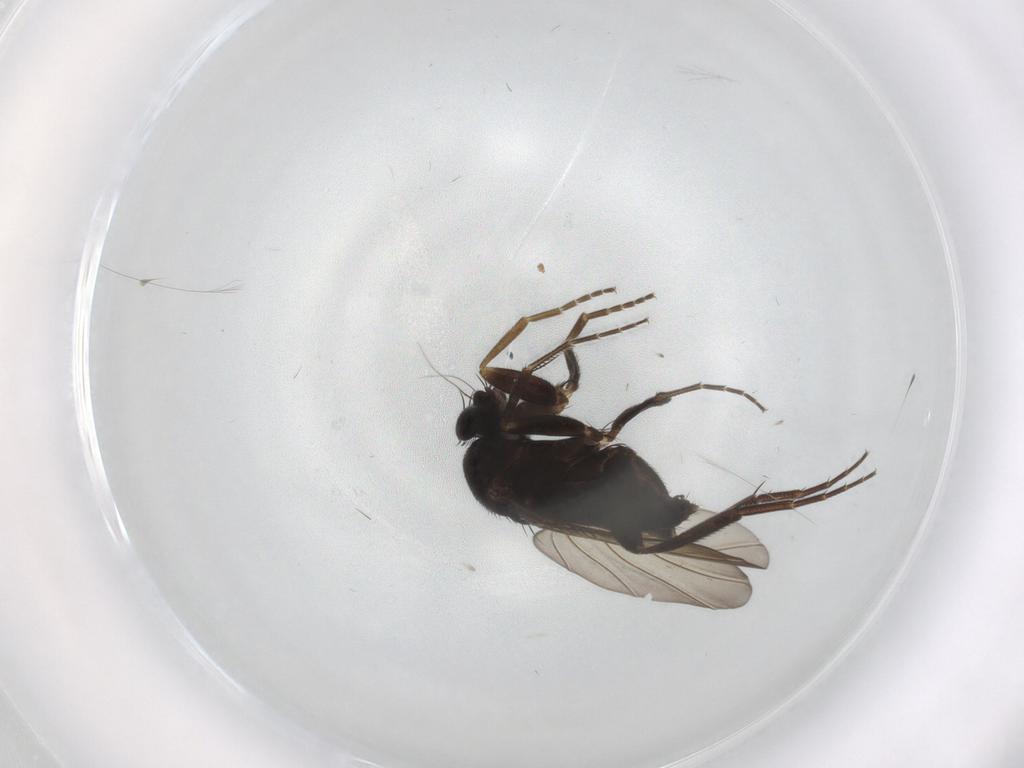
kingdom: Animalia
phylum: Arthropoda
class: Insecta
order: Diptera
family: Phoridae
